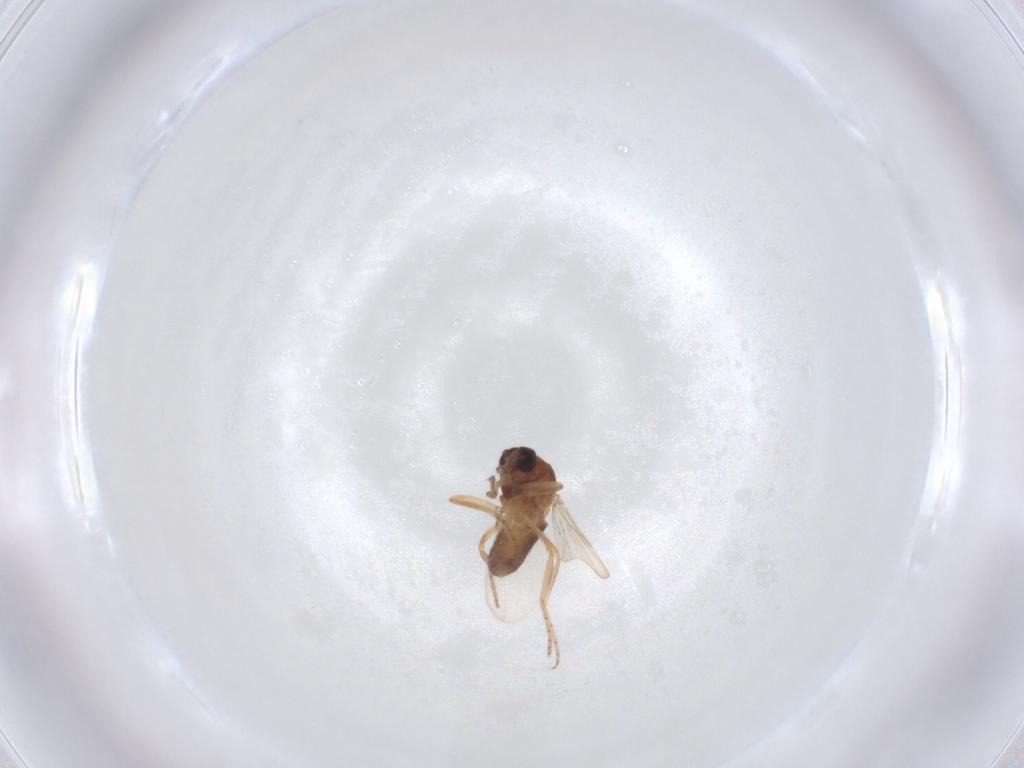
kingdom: Animalia
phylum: Arthropoda
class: Insecta
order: Diptera
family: Ceratopogonidae
